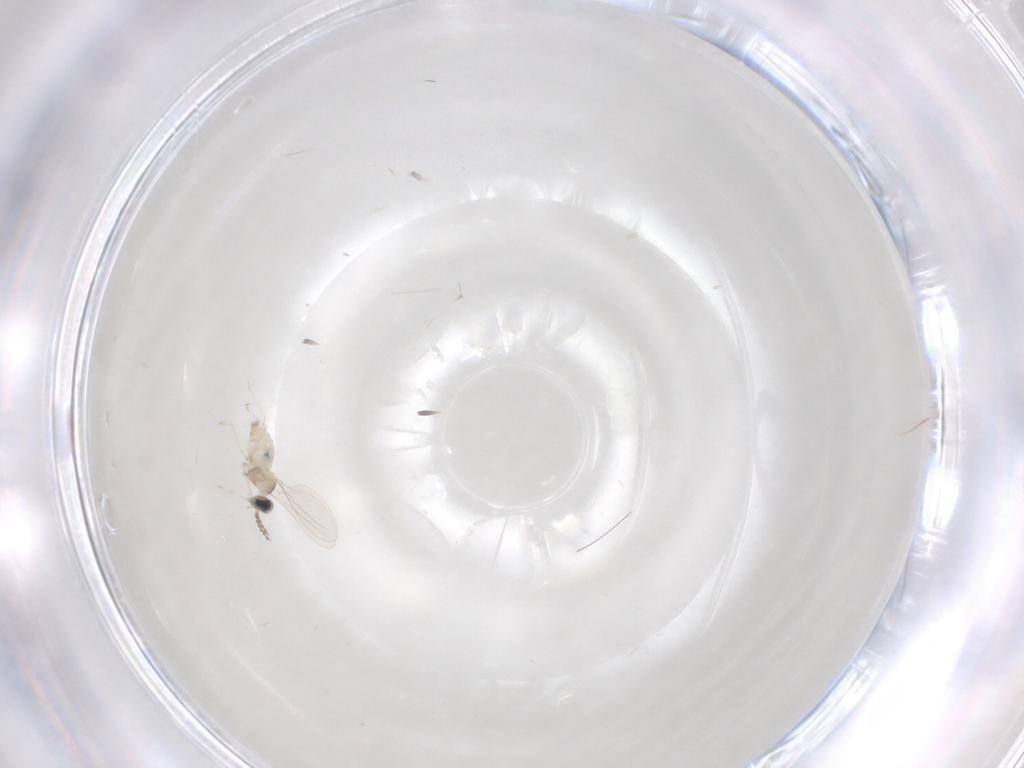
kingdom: Animalia
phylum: Arthropoda
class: Insecta
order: Diptera
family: Cecidomyiidae
